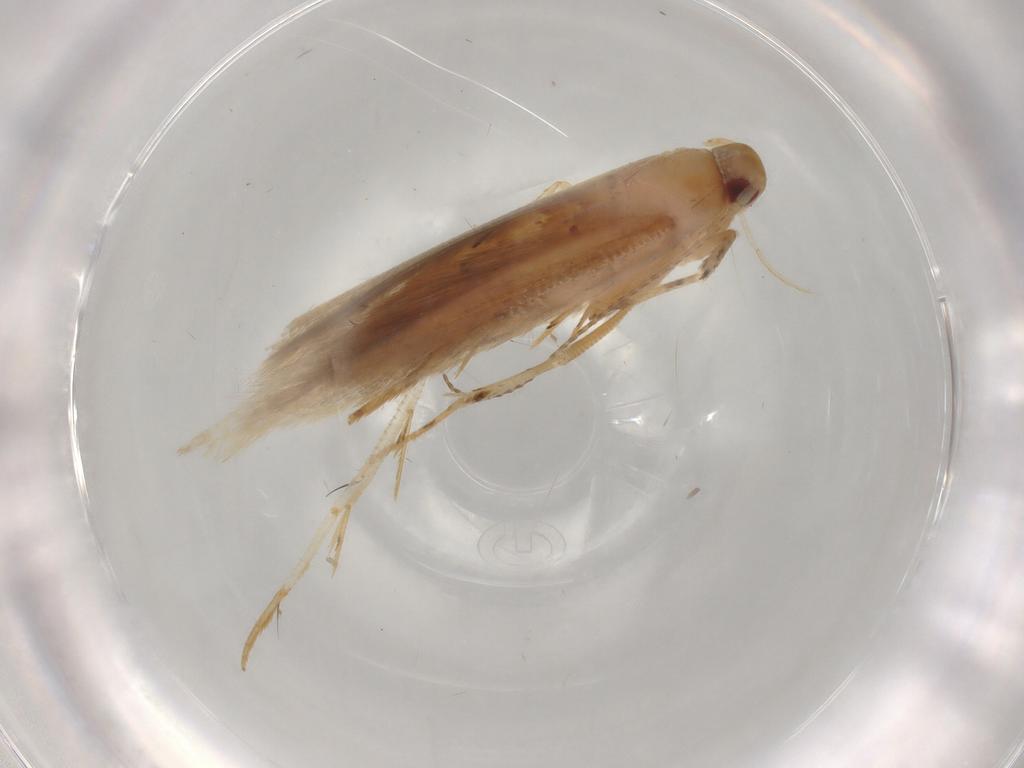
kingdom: Animalia
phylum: Arthropoda
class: Insecta
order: Lepidoptera
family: Cosmopterigidae
